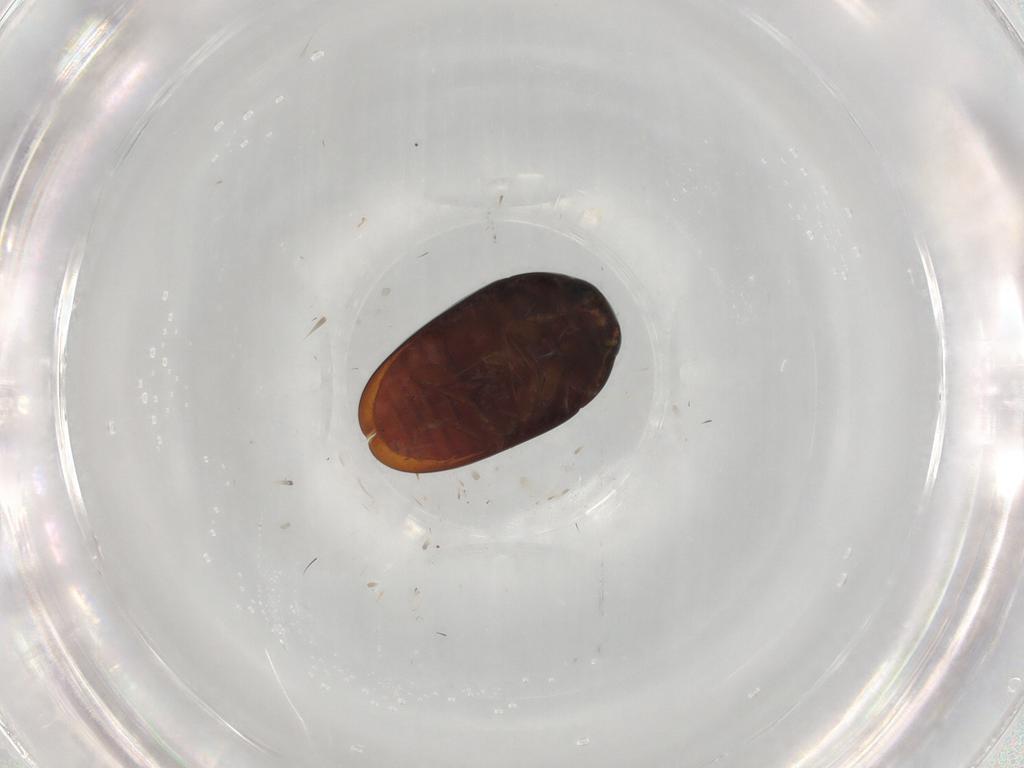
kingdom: Animalia
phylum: Arthropoda
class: Insecta
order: Coleoptera
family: Phalacridae
